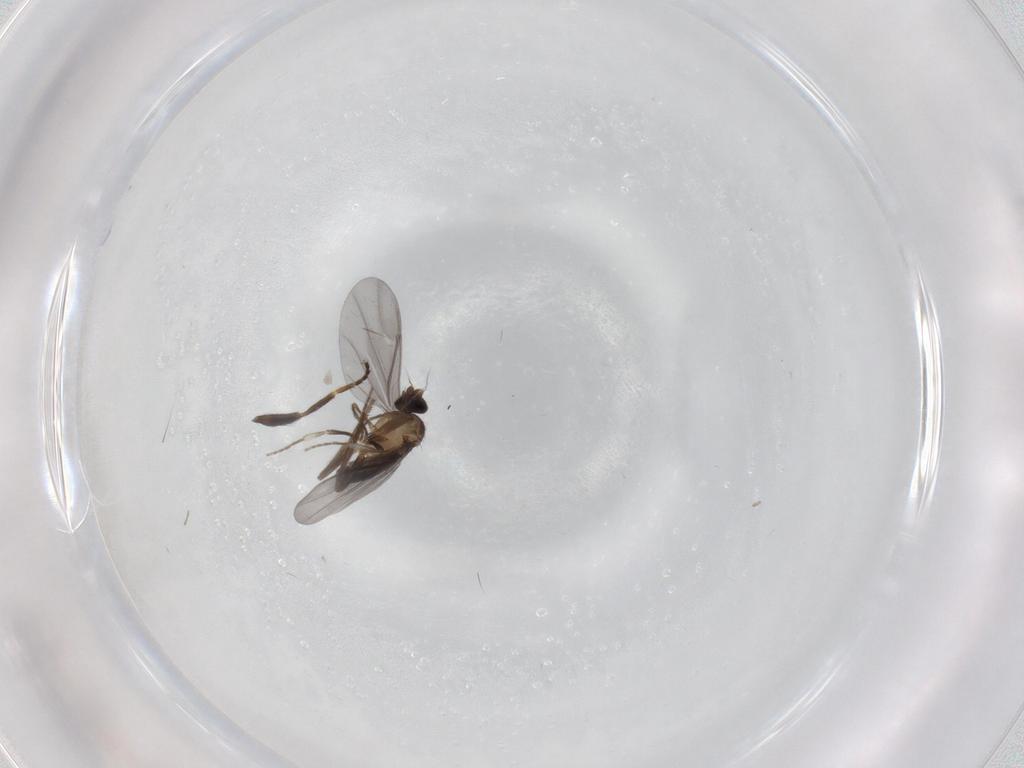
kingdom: Animalia
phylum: Arthropoda
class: Insecta
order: Diptera
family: Phoridae
